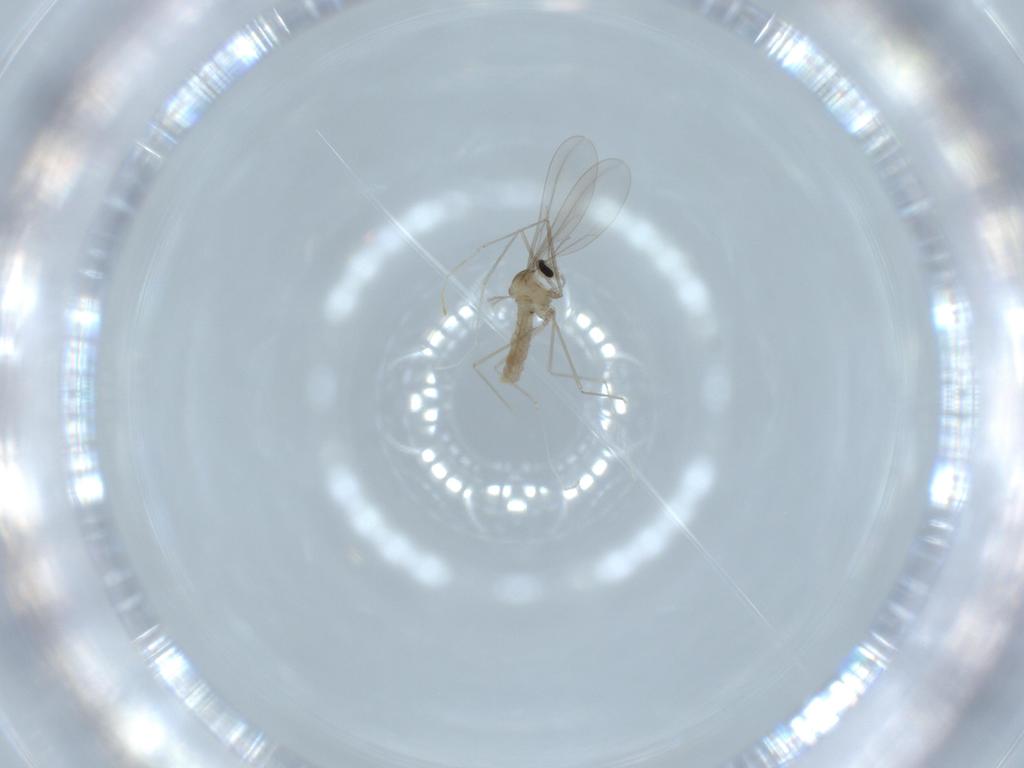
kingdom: Animalia
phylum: Arthropoda
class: Insecta
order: Diptera
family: Cecidomyiidae
